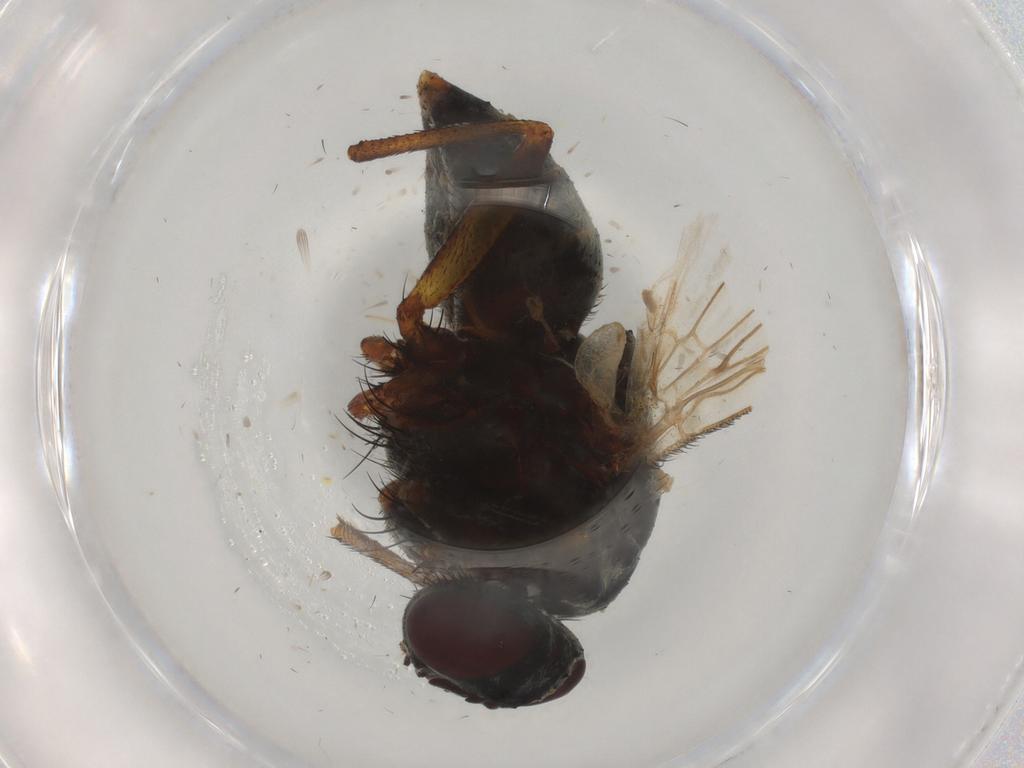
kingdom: Animalia
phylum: Arthropoda
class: Insecta
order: Diptera
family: Muscidae
